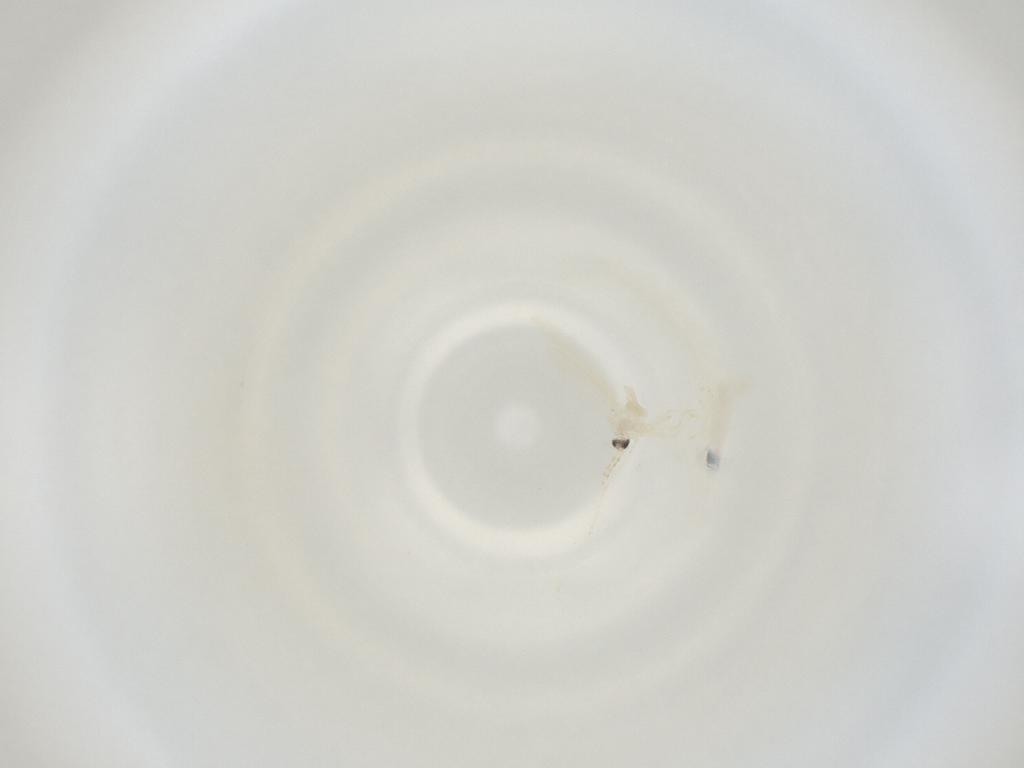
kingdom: Animalia
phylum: Arthropoda
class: Insecta
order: Diptera
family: Cecidomyiidae
